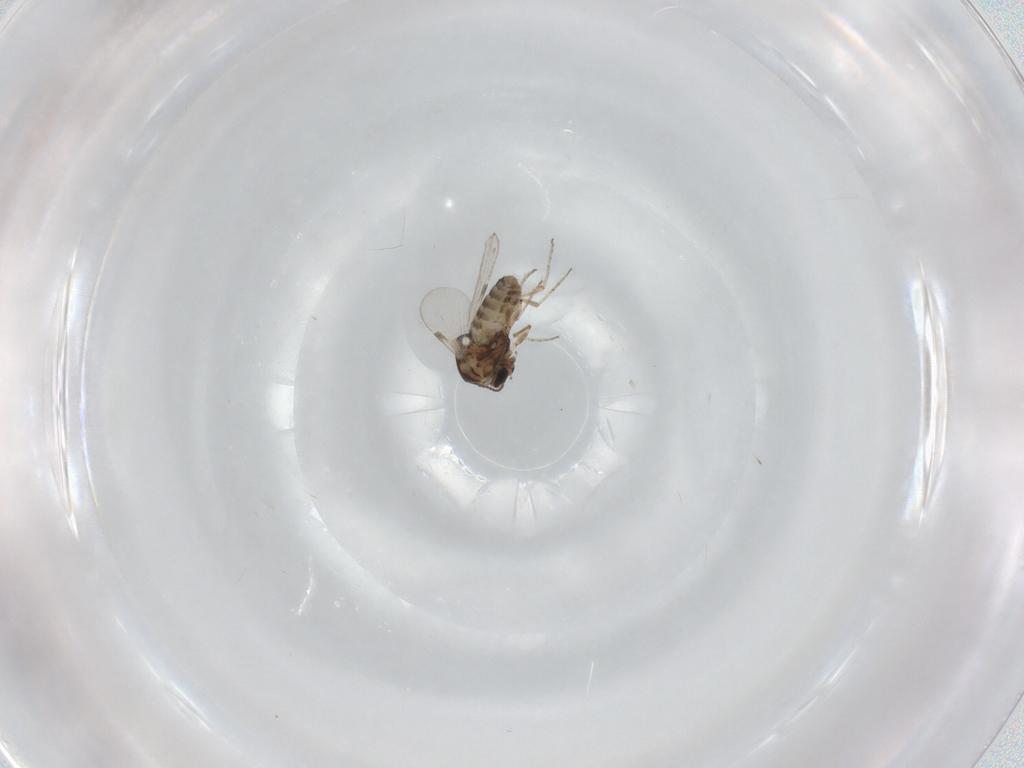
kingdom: Animalia
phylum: Arthropoda
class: Insecta
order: Diptera
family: Ceratopogonidae
